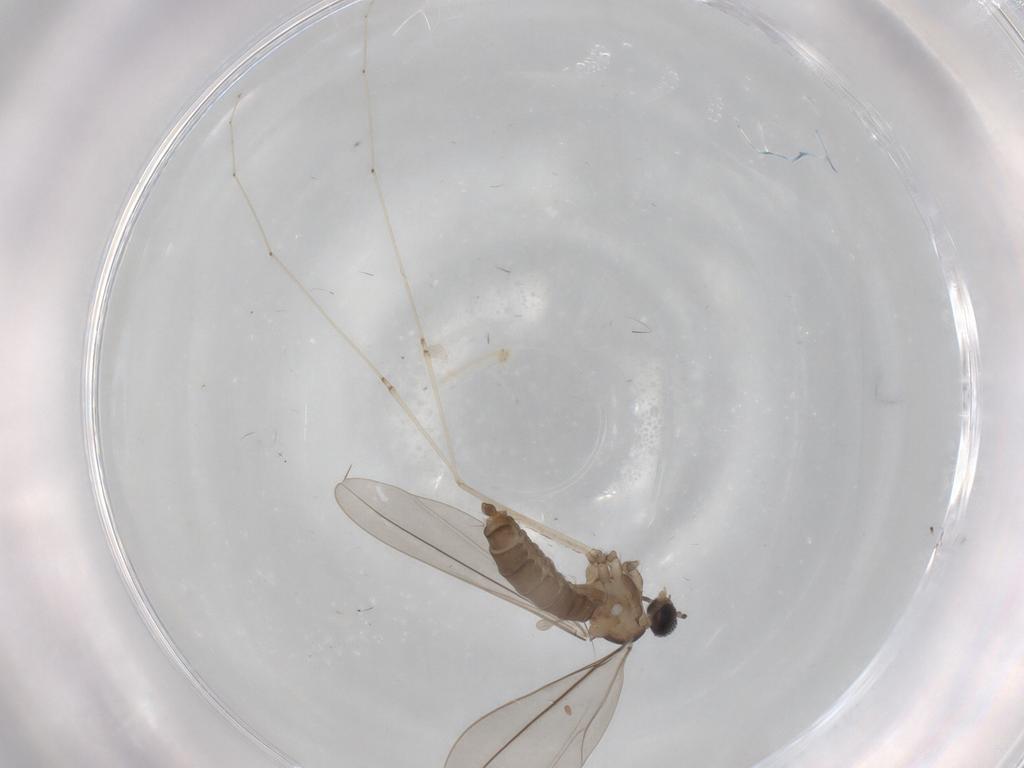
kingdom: Animalia
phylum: Arthropoda
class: Insecta
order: Diptera
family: Cecidomyiidae
